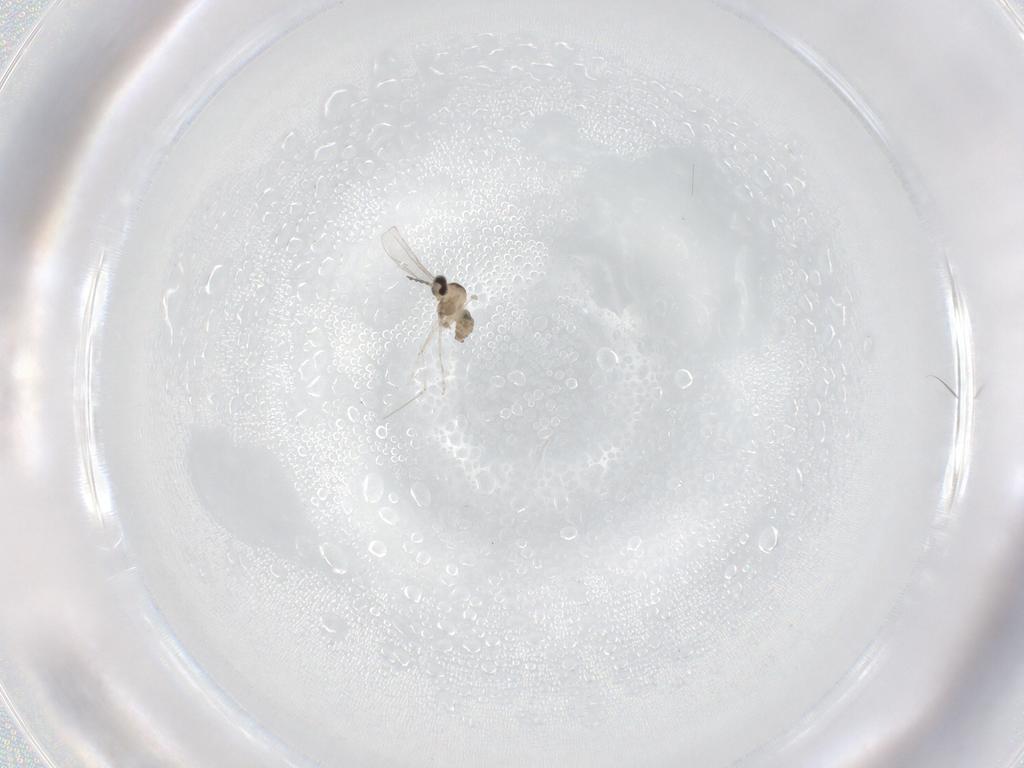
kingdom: Animalia
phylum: Arthropoda
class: Insecta
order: Diptera
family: Cecidomyiidae
